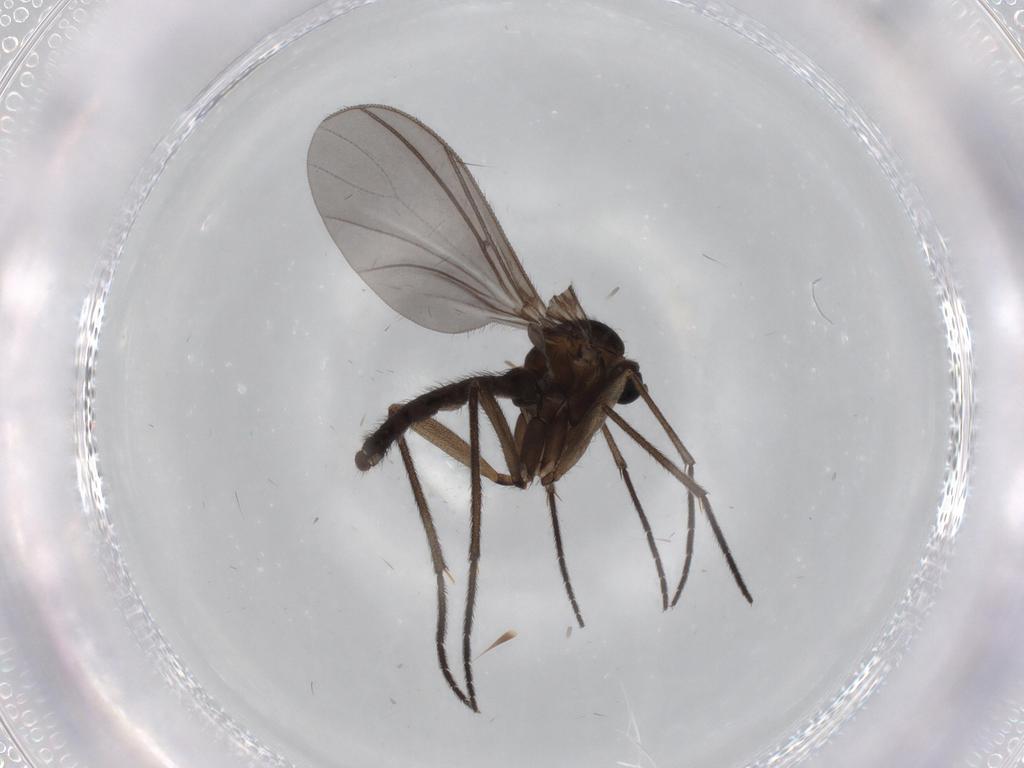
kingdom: Animalia
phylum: Arthropoda
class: Insecta
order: Diptera
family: Sciaridae
